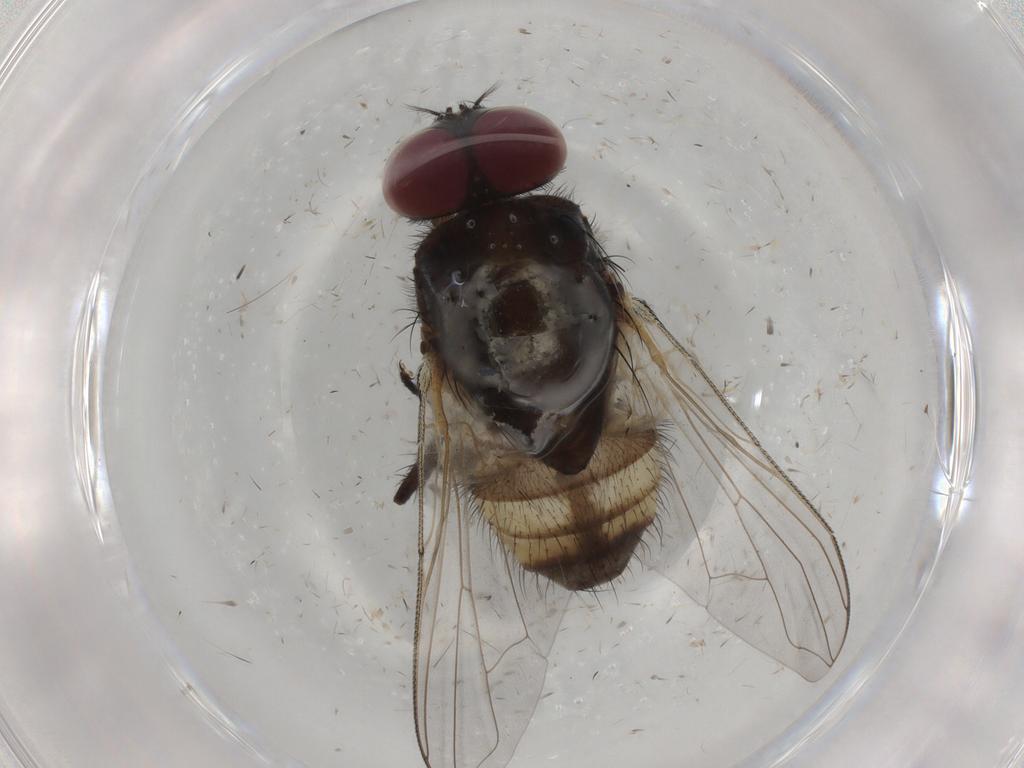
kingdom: Animalia
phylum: Arthropoda
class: Insecta
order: Diptera
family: Muscidae
